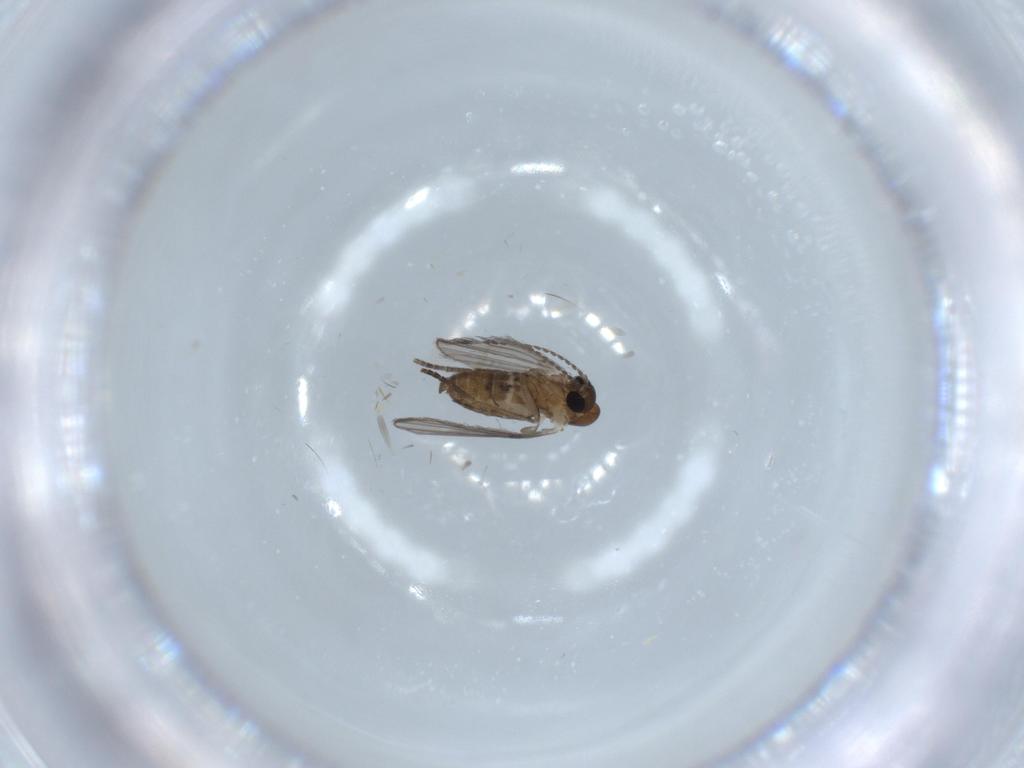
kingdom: Animalia
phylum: Arthropoda
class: Insecta
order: Diptera
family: Psychodidae
